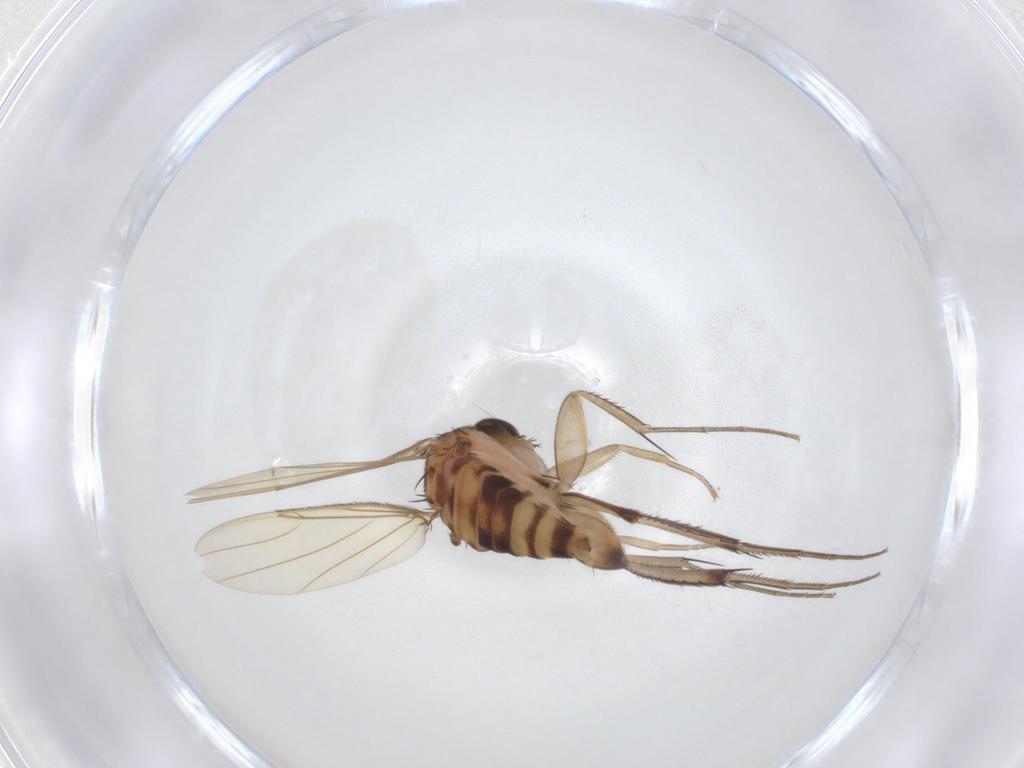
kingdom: Animalia
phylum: Arthropoda
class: Insecta
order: Diptera
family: Phoridae
